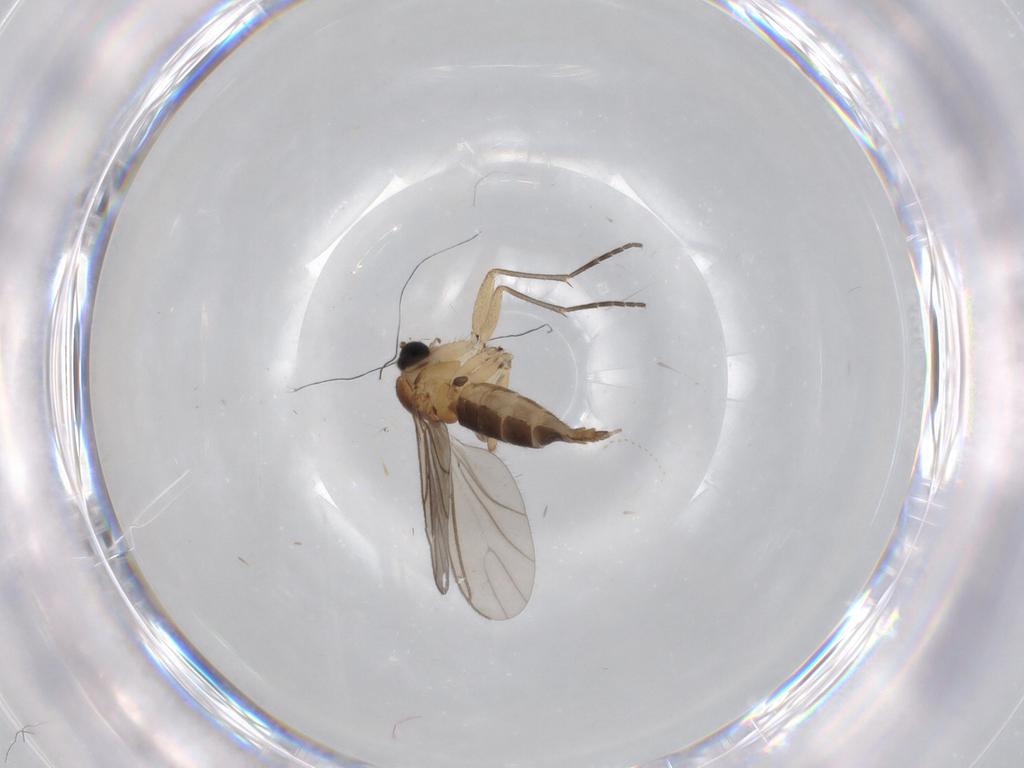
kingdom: Animalia
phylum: Arthropoda
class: Insecta
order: Diptera
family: Sciaridae
